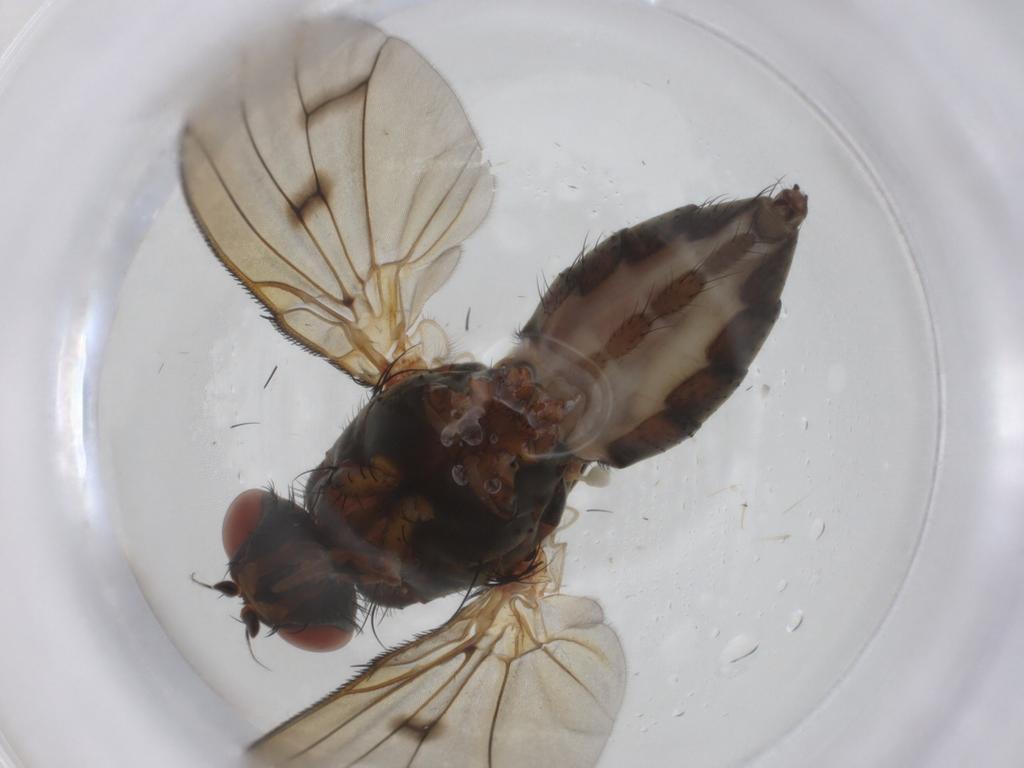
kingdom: Animalia
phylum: Arthropoda
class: Insecta
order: Diptera
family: Anthomyiidae
